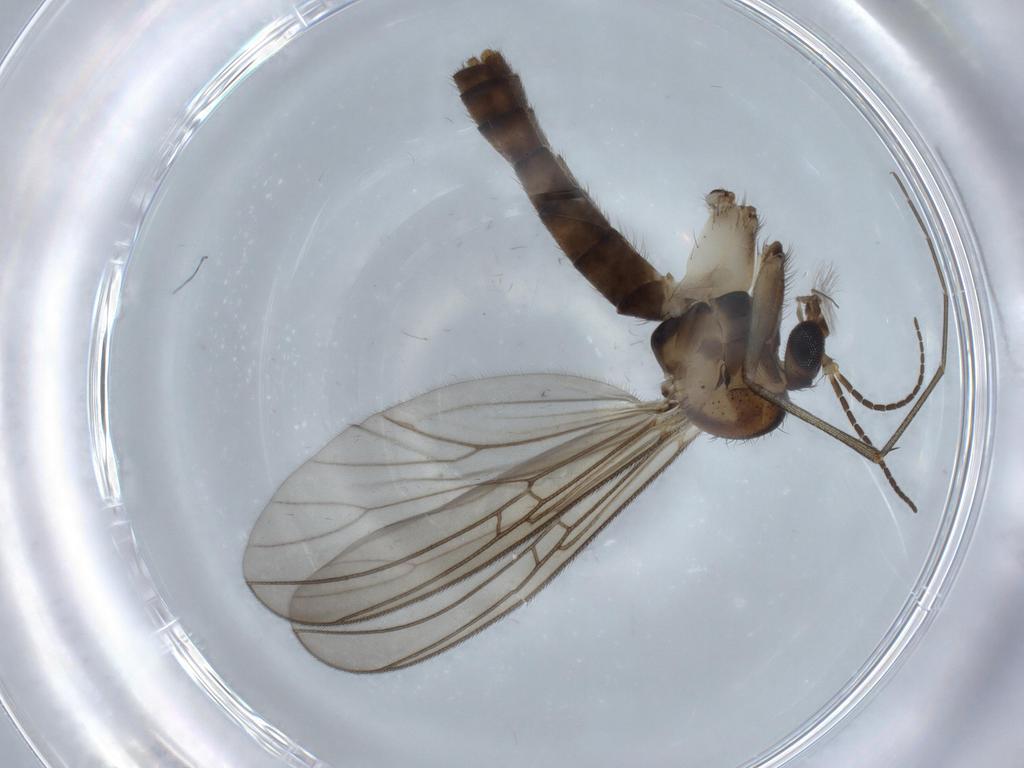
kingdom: Animalia
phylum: Arthropoda
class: Insecta
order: Diptera
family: Mycetophilidae
